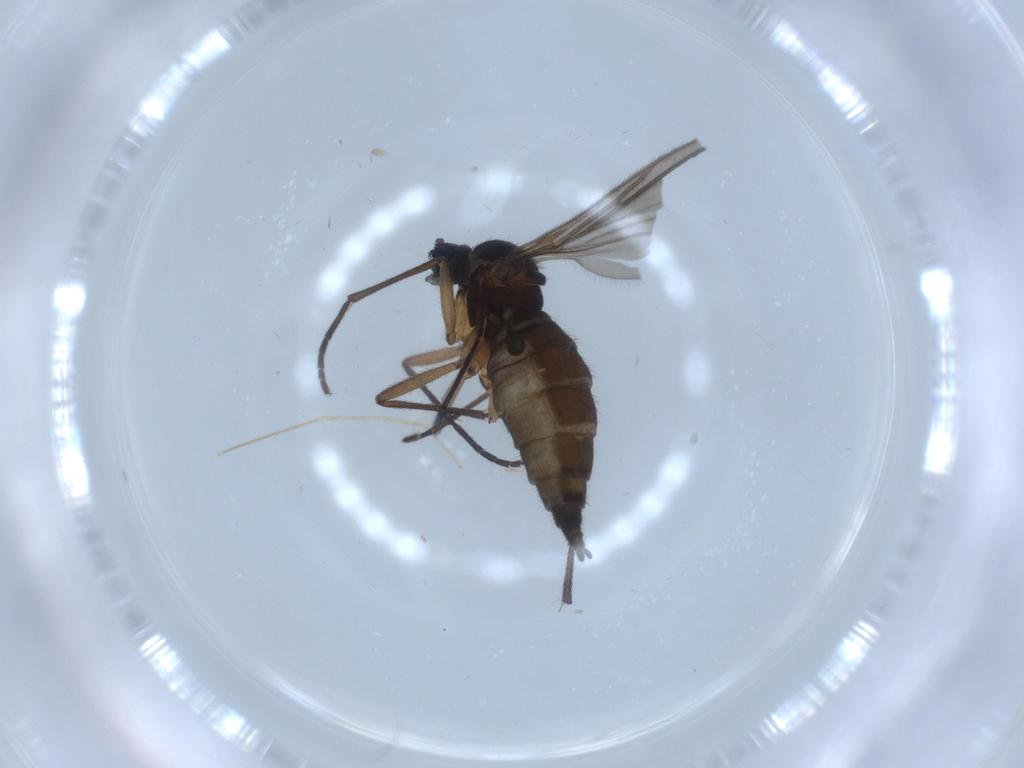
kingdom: Animalia
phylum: Arthropoda
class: Insecta
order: Diptera
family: Sciaridae
